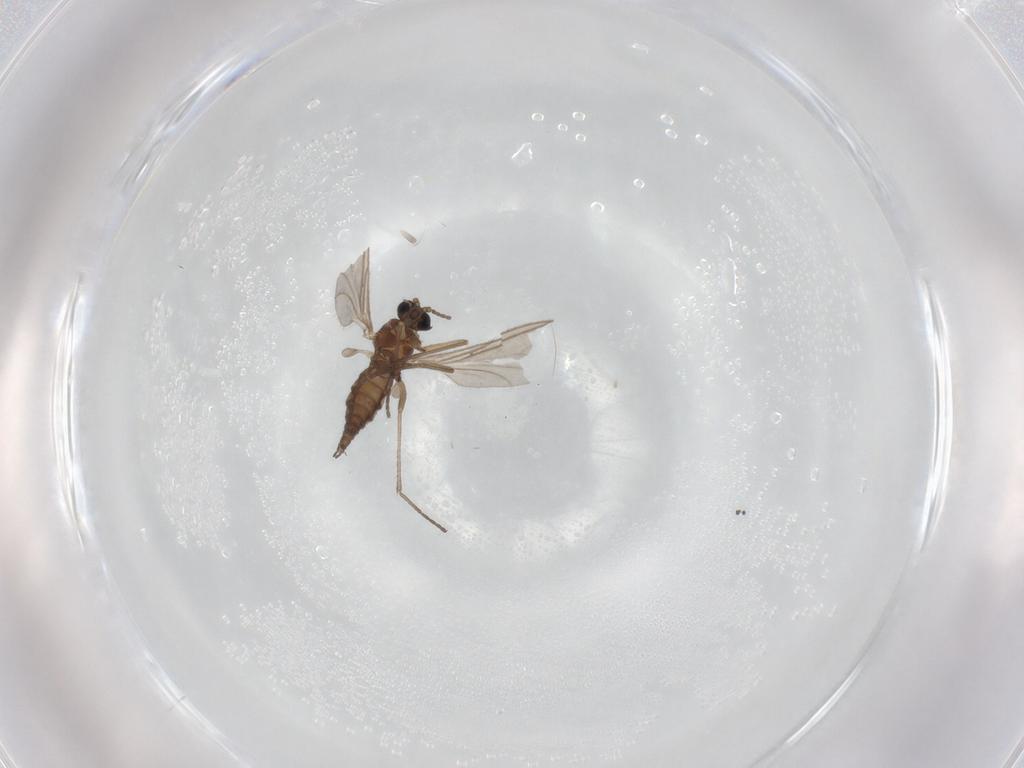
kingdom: Animalia
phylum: Arthropoda
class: Insecta
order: Diptera
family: Sciaridae
